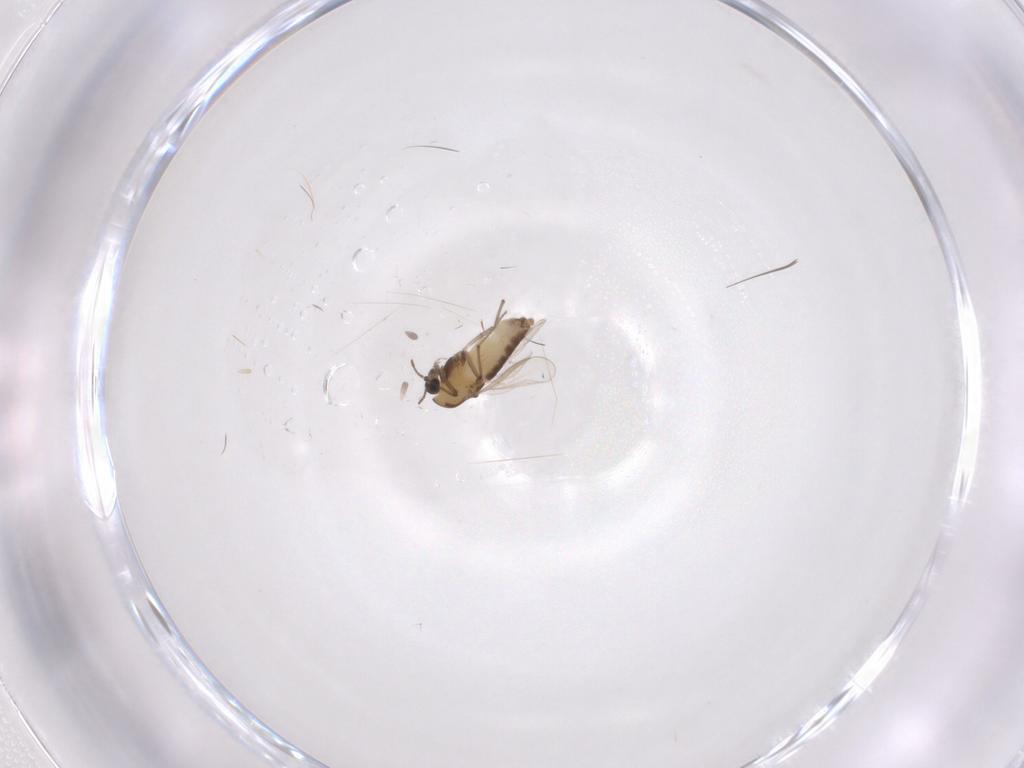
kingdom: Animalia
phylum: Arthropoda
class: Insecta
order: Diptera
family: Chironomidae
